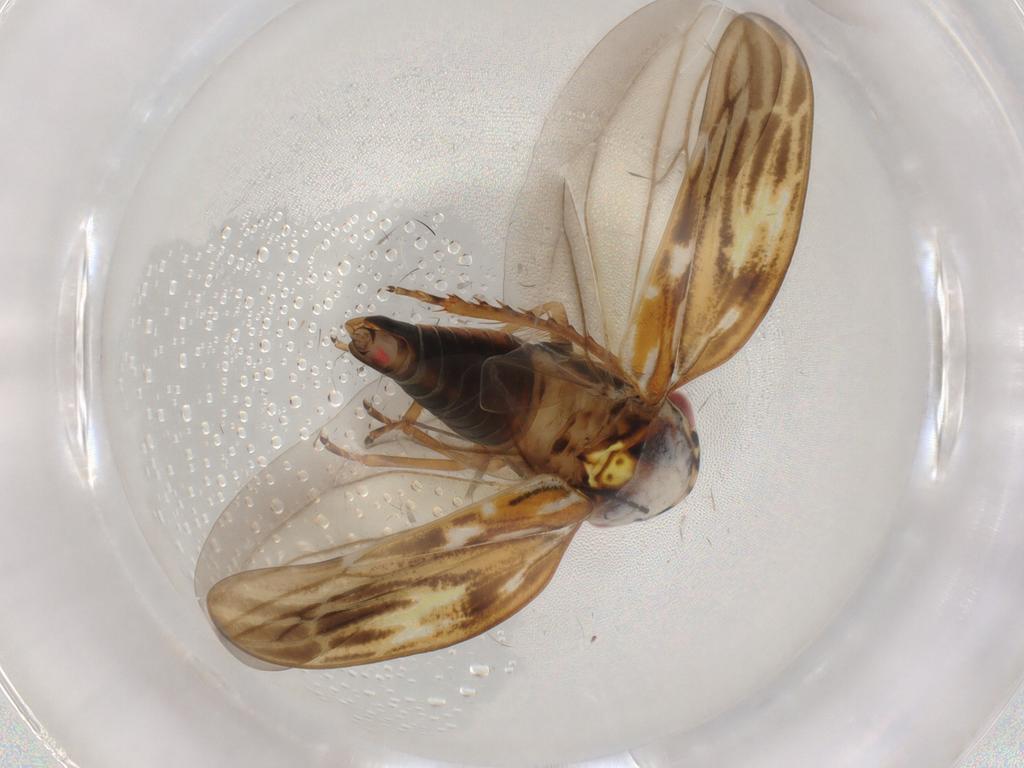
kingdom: Animalia
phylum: Arthropoda
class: Insecta
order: Hemiptera
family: Cicadellidae
